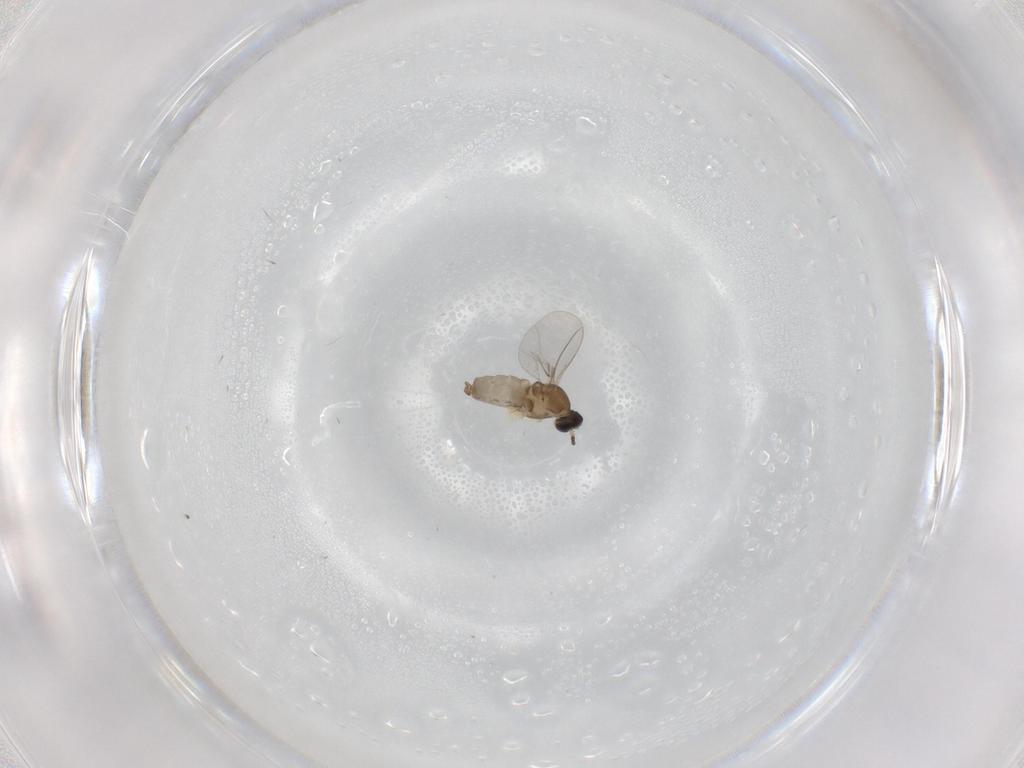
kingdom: Animalia
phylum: Arthropoda
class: Insecta
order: Diptera
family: Cecidomyiidae
